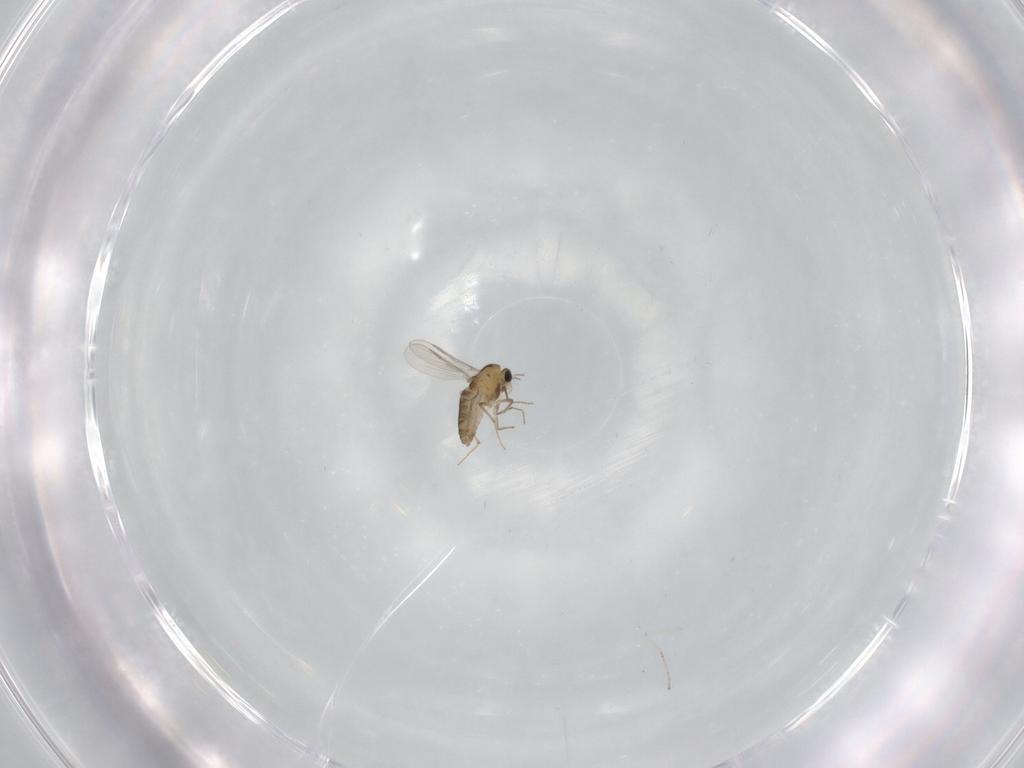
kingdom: Animalia
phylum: Arthropoda
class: Insecta
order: Diptera
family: Chironomidae
